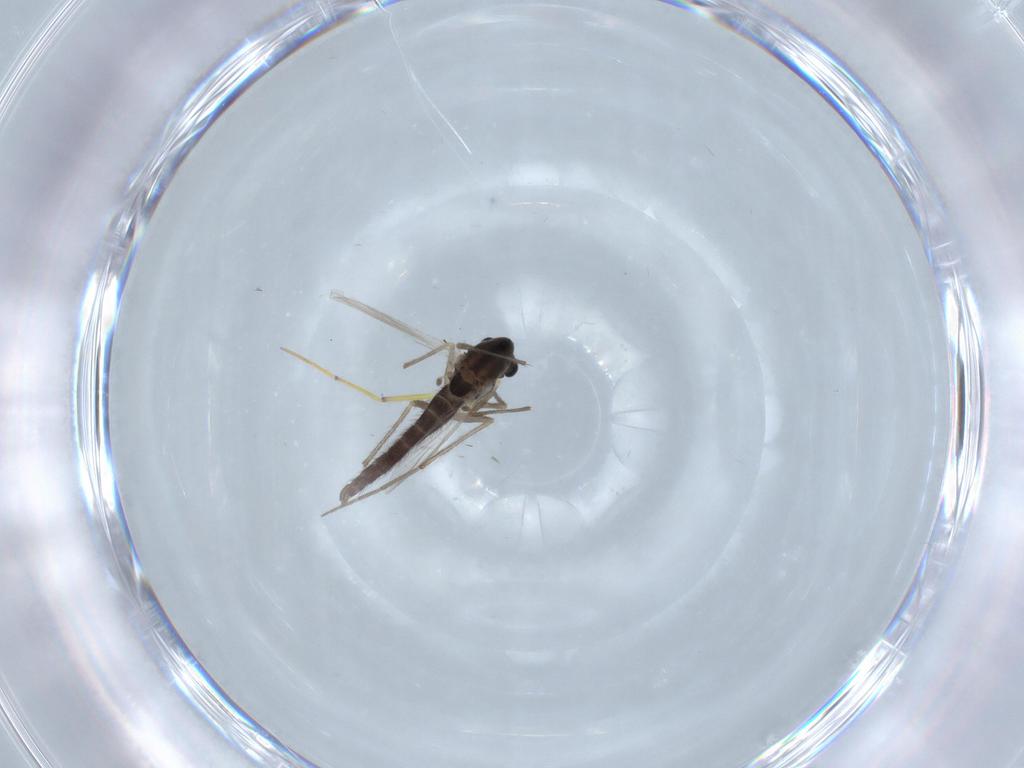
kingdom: Animalia
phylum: Arthropoda
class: Insecta
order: Diptera
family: Chironomidae
